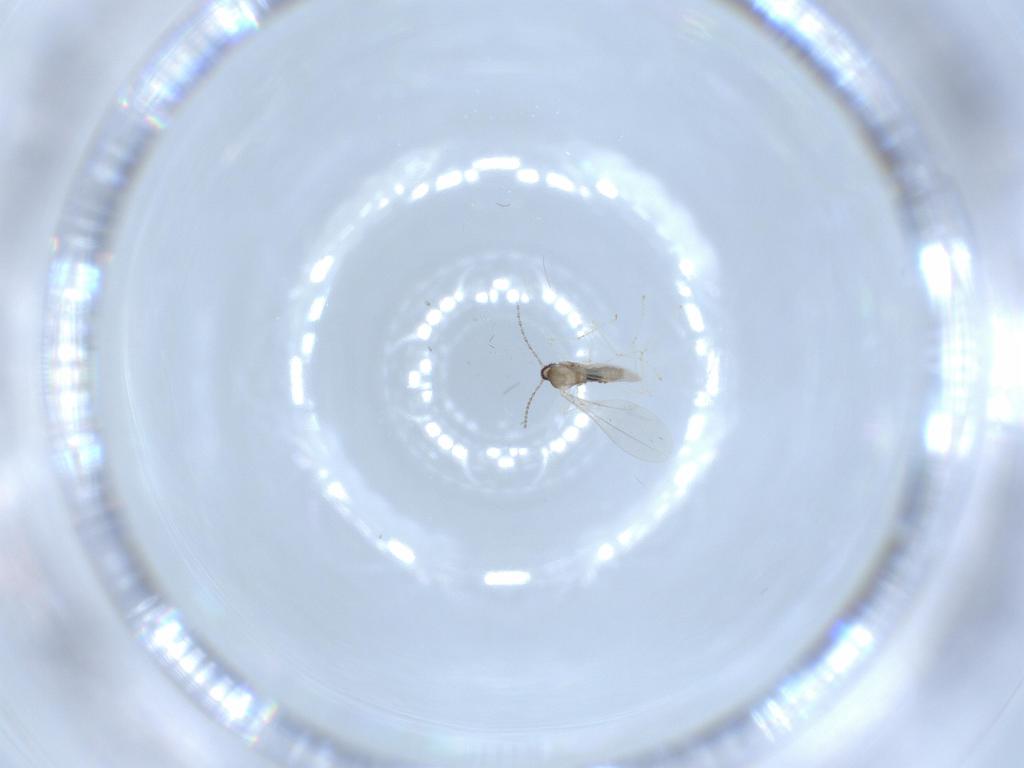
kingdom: Animalia
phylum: Arthropoda
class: Insecta
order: Diptera
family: Cecidomyiidae
